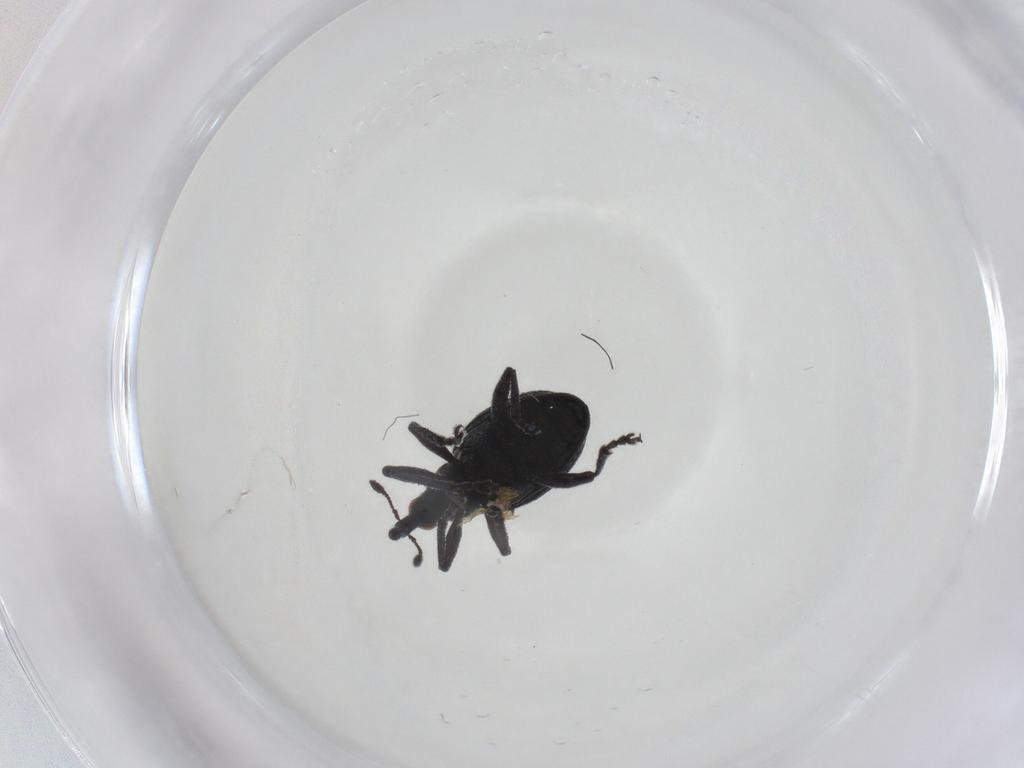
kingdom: Animalia
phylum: Arthropoda
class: Insecta
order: Coleoptera
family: Brentidae
